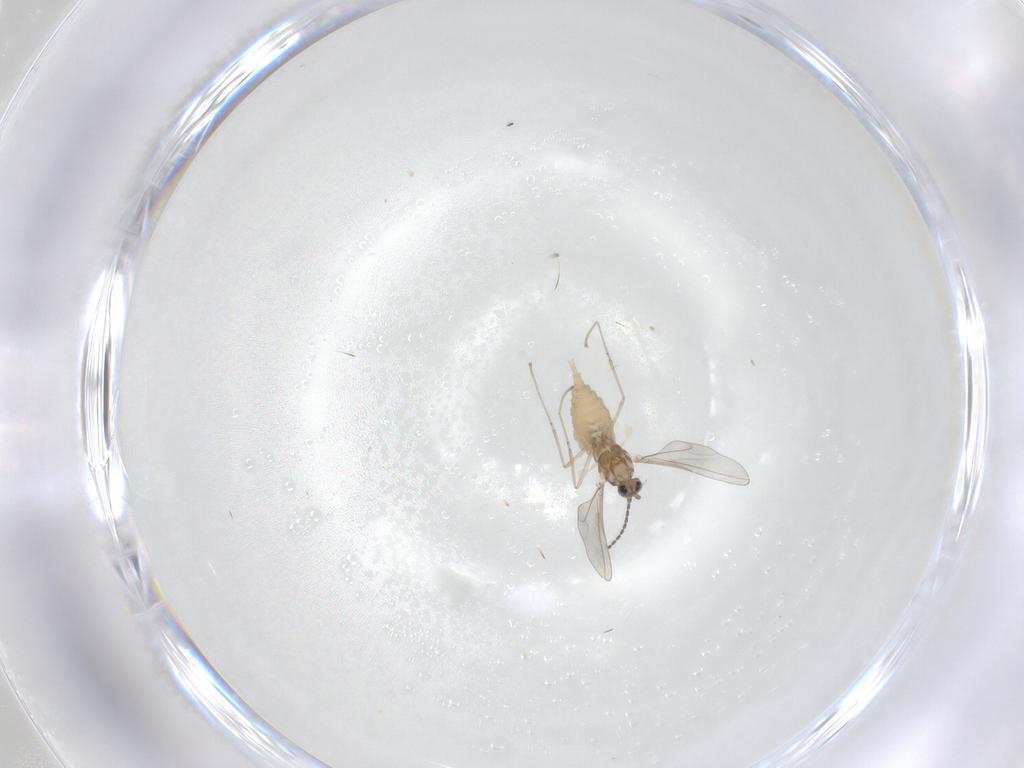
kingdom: Animalia
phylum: Arthropoda
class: Insecta
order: Diptera
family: Cecidomyiidae
